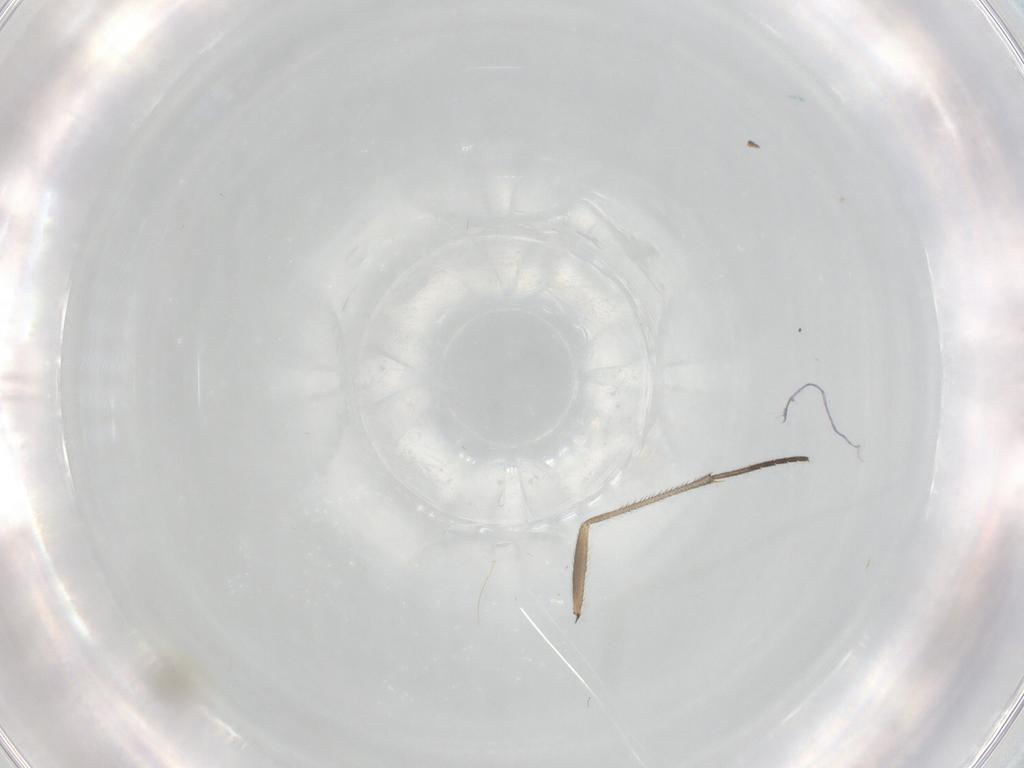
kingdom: Animalia
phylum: Arthropoda
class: Insecta
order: Diptera
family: Cecidomyiidae
